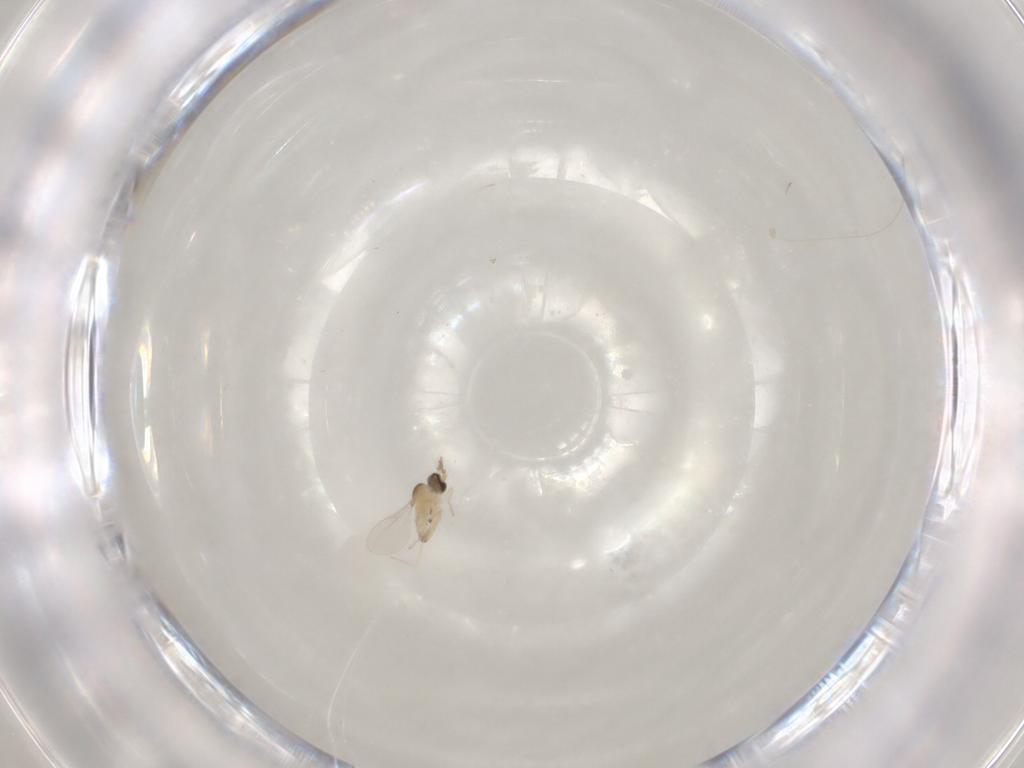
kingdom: Animalia
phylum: Arthropoda
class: Insecta
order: Diptera
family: Cecidomyiidae
